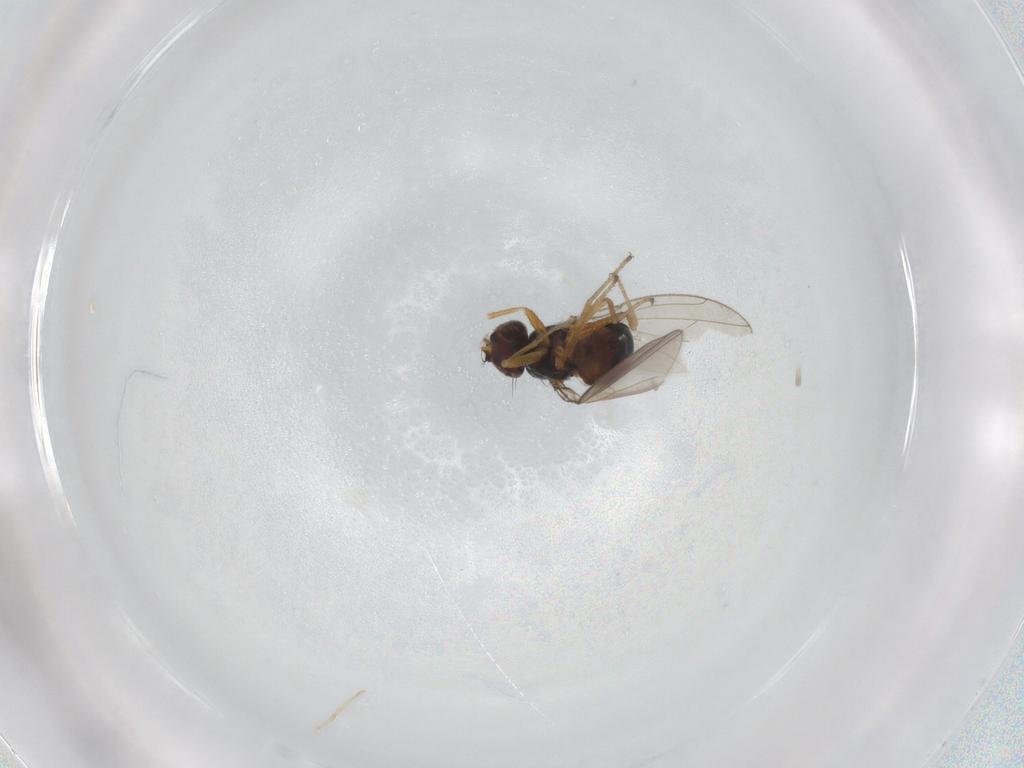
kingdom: Animalia
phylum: Arthropoda
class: Insecta
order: Diptera
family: Ephydridae
